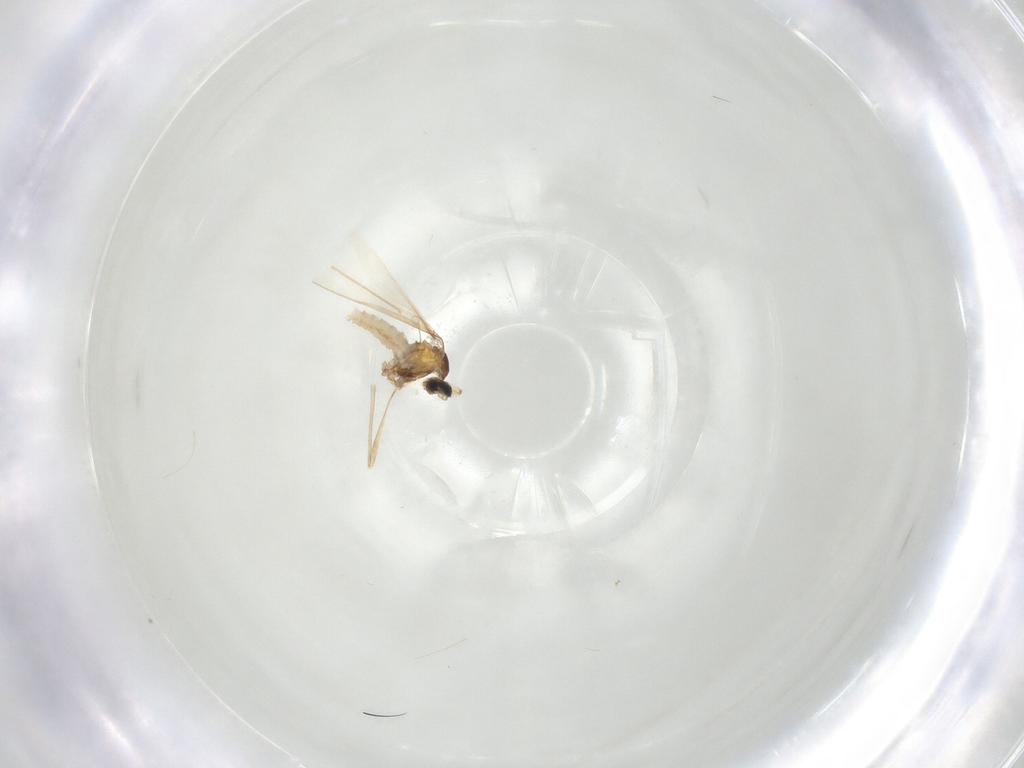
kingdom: Animalia
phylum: Arthropoda
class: Insecta
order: Diptera
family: Cecidomyiidae
